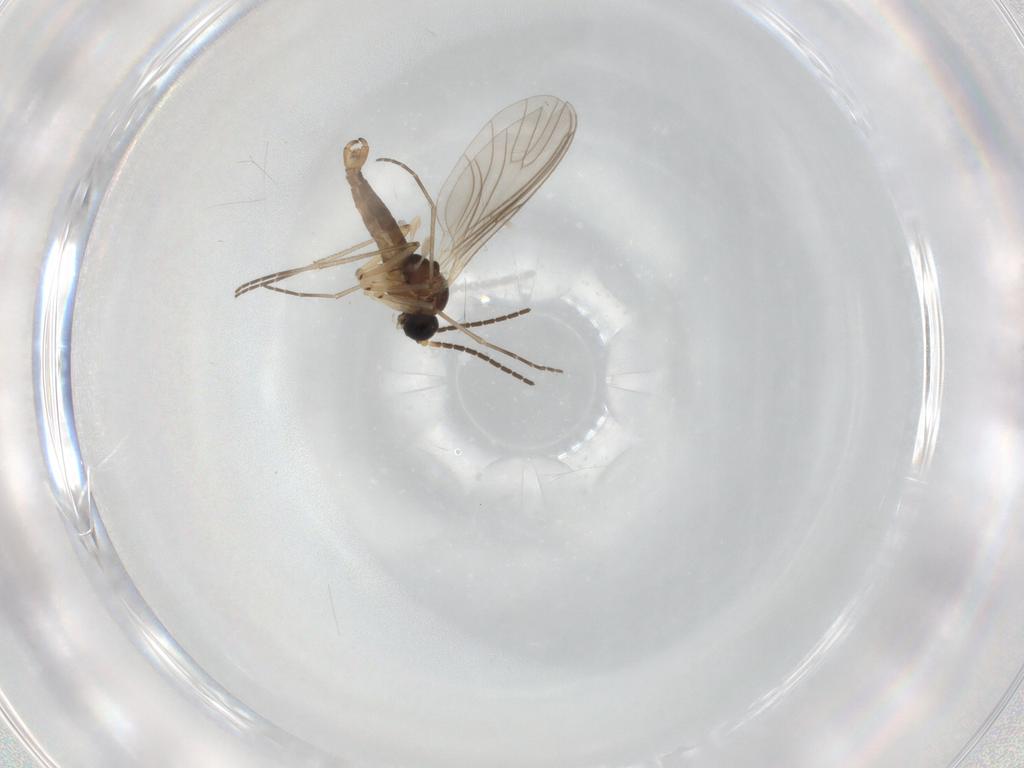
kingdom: Animalia
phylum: Arthropoda
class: Insecta
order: Diptera
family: Sciaridae
